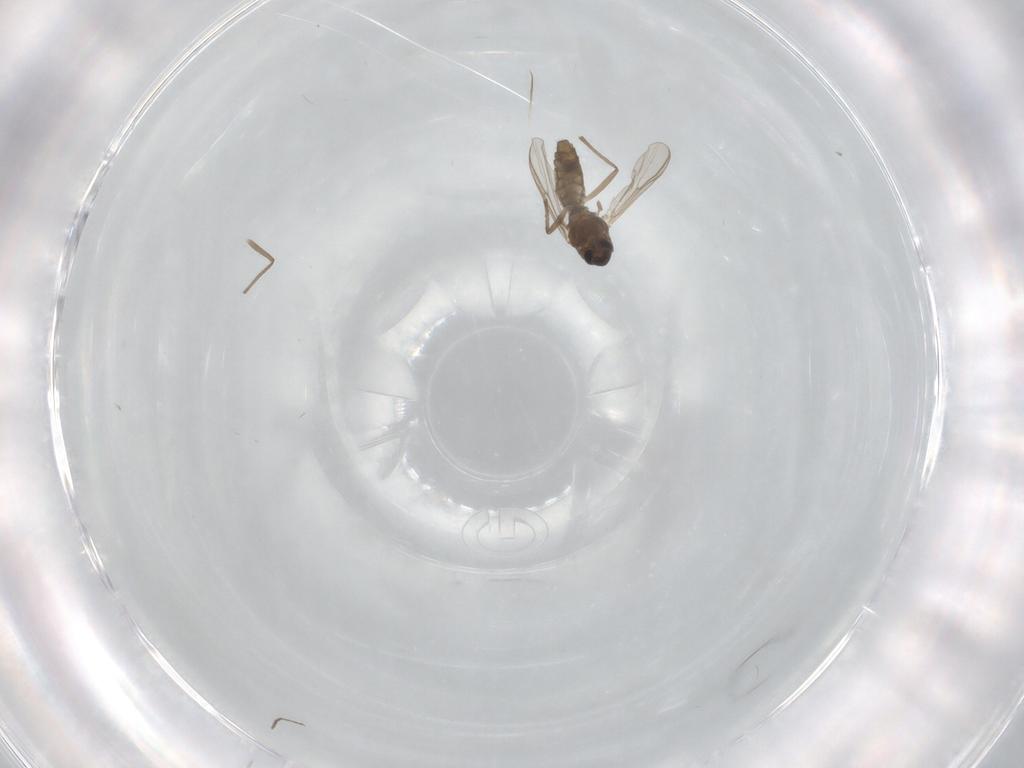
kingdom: Animalia
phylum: Arthropoda
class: Insecta
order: Diptera
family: Chironomidae
